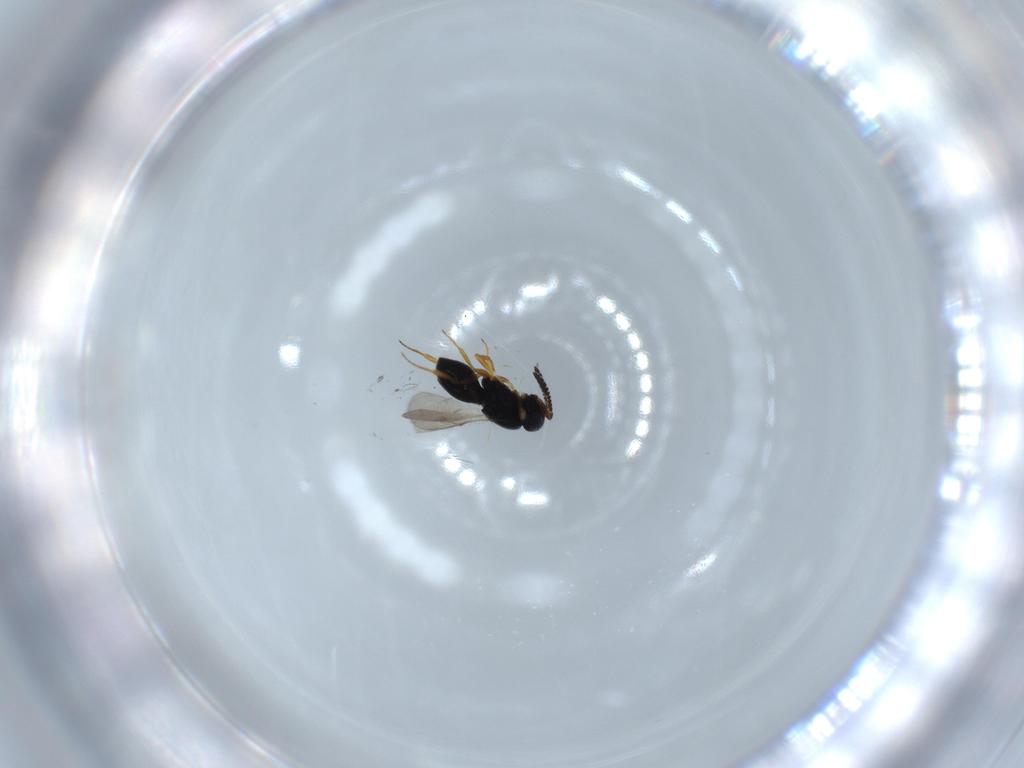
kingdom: Animalia
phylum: Arthropoda
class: Insecta
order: Hymenoptera
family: Scelionidae
